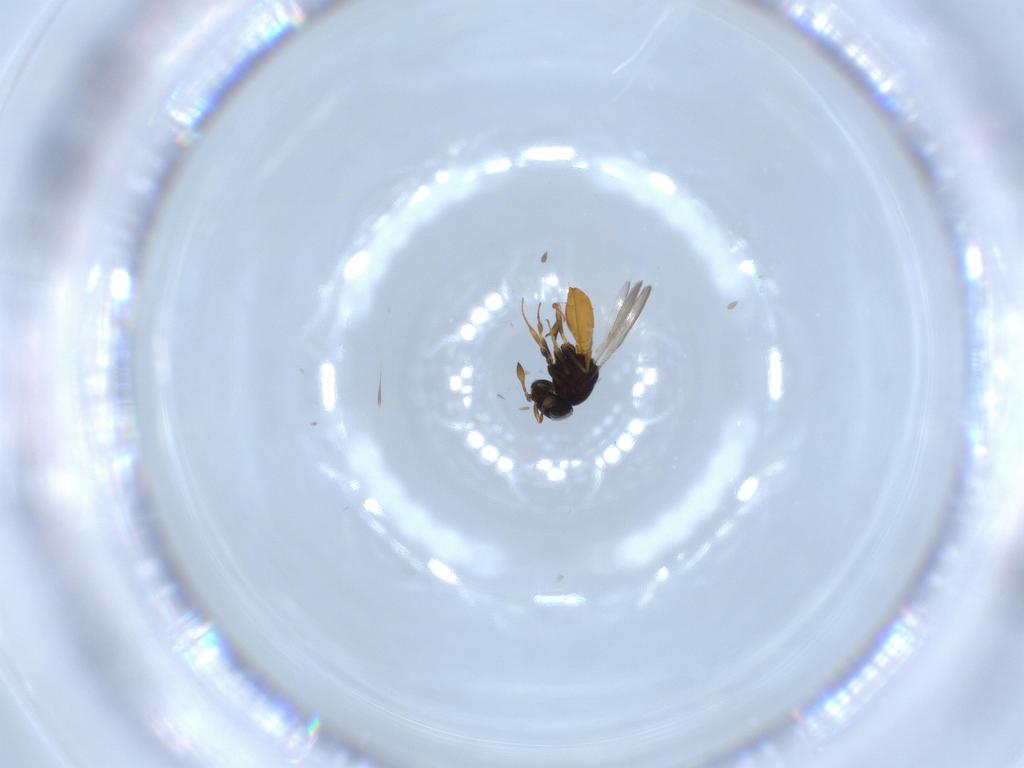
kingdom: Animalia
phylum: Arthropoda
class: Insecta
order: Hymenoptera
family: Scelionidae
